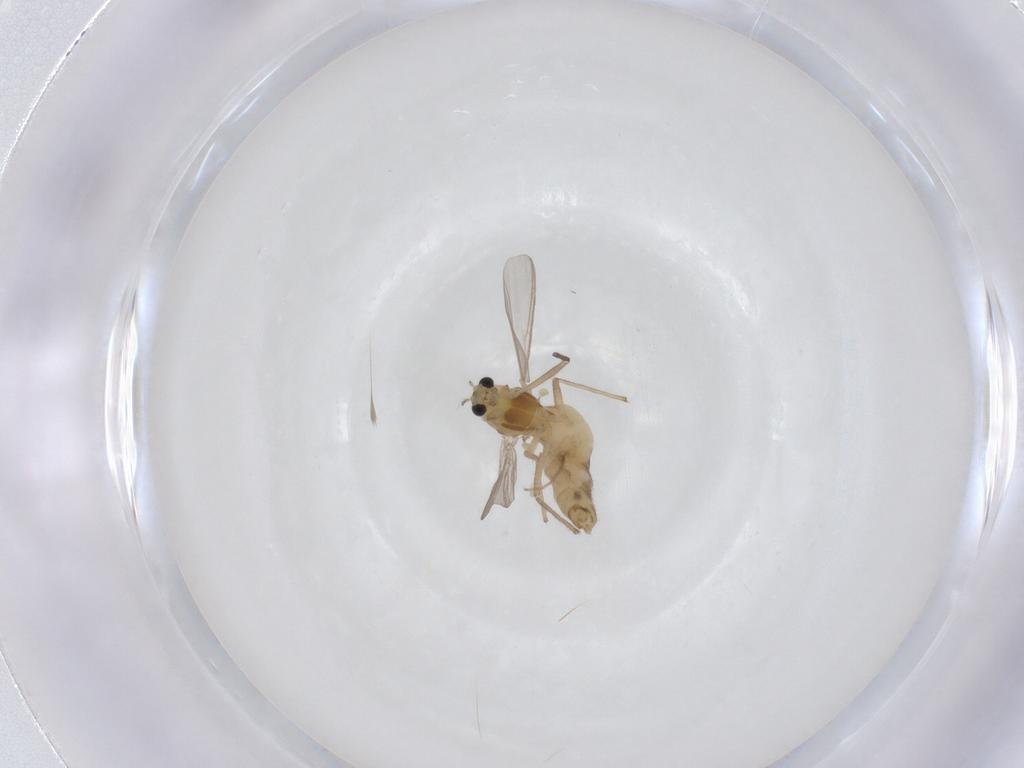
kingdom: Animalia
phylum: Arthropoda
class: Insecta
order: Diptera
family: Chironomidae
